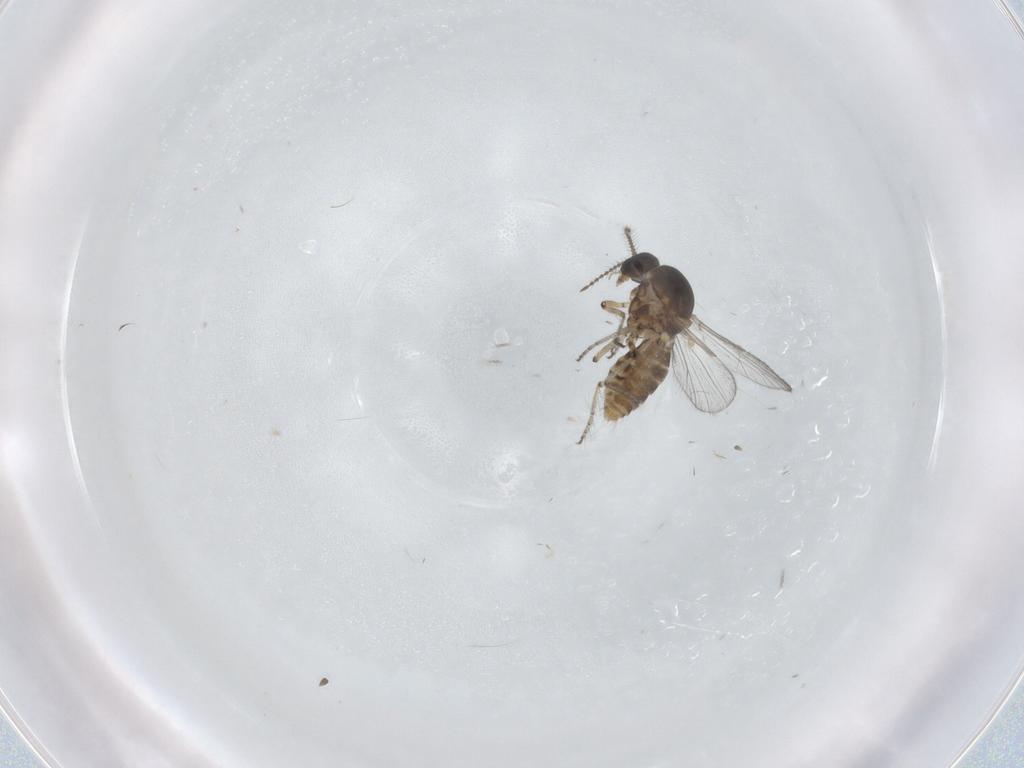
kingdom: Animalia
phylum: Arthropoda
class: Insecta
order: Diptera
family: Ceratopogonidae
